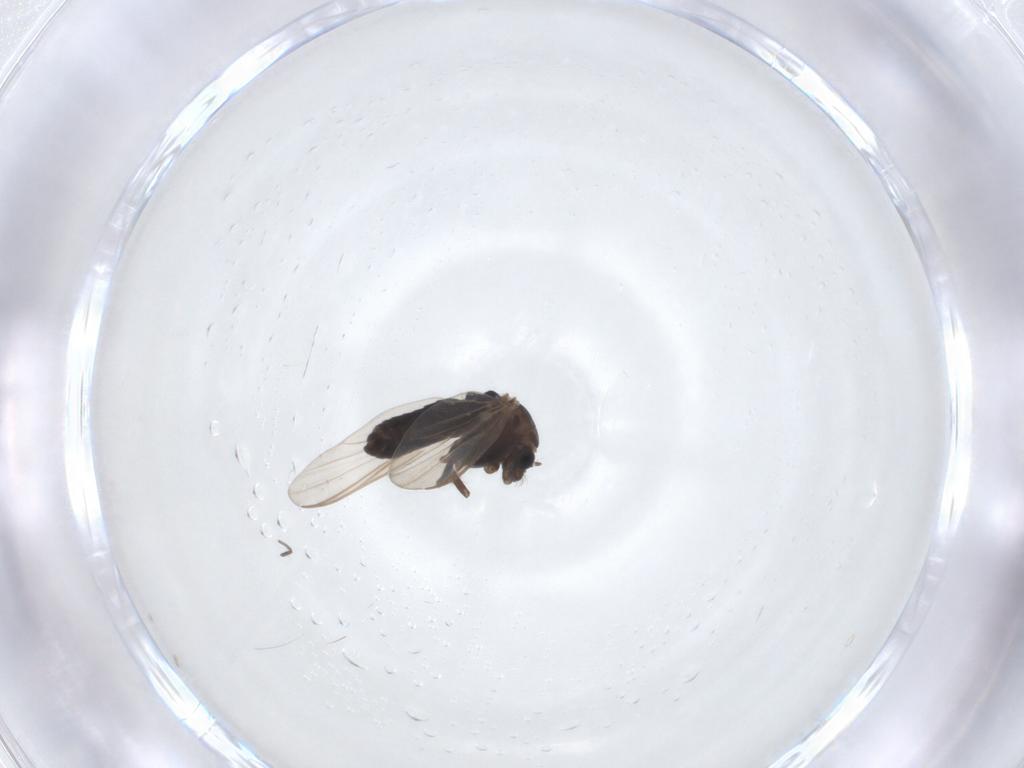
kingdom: Animalia
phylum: Arthropoda
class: Insecta
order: Diptera
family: Chironomidae
